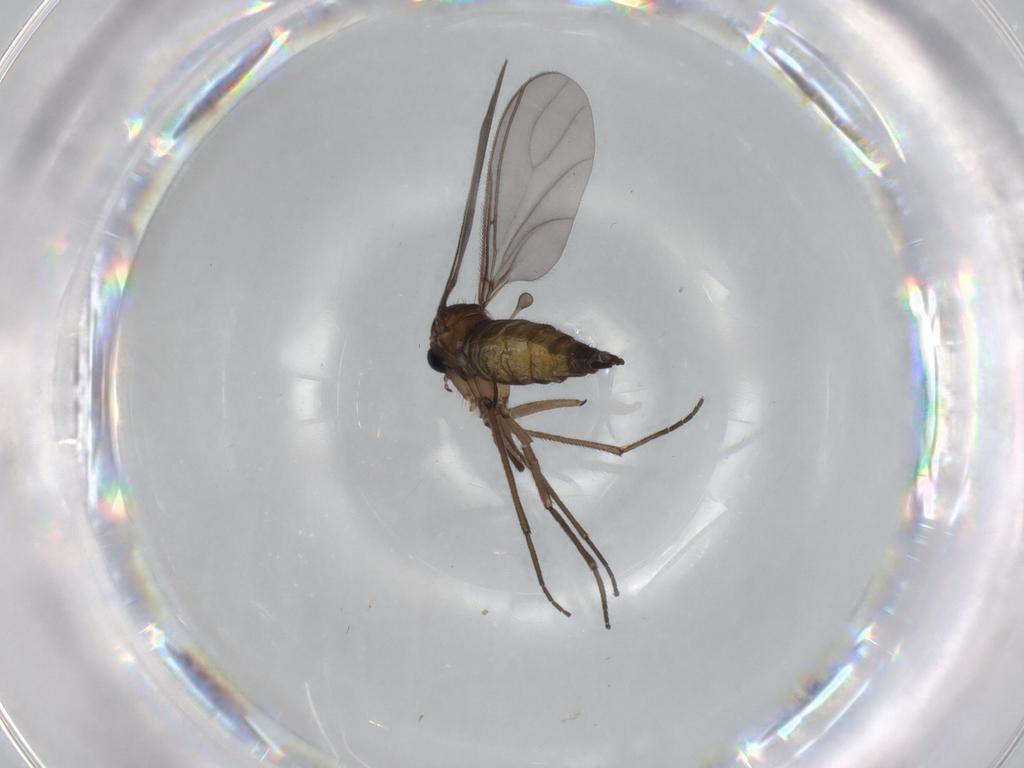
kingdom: Animalia
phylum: Arthropoda
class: Insecta
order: Diptera
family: Sciaridae
